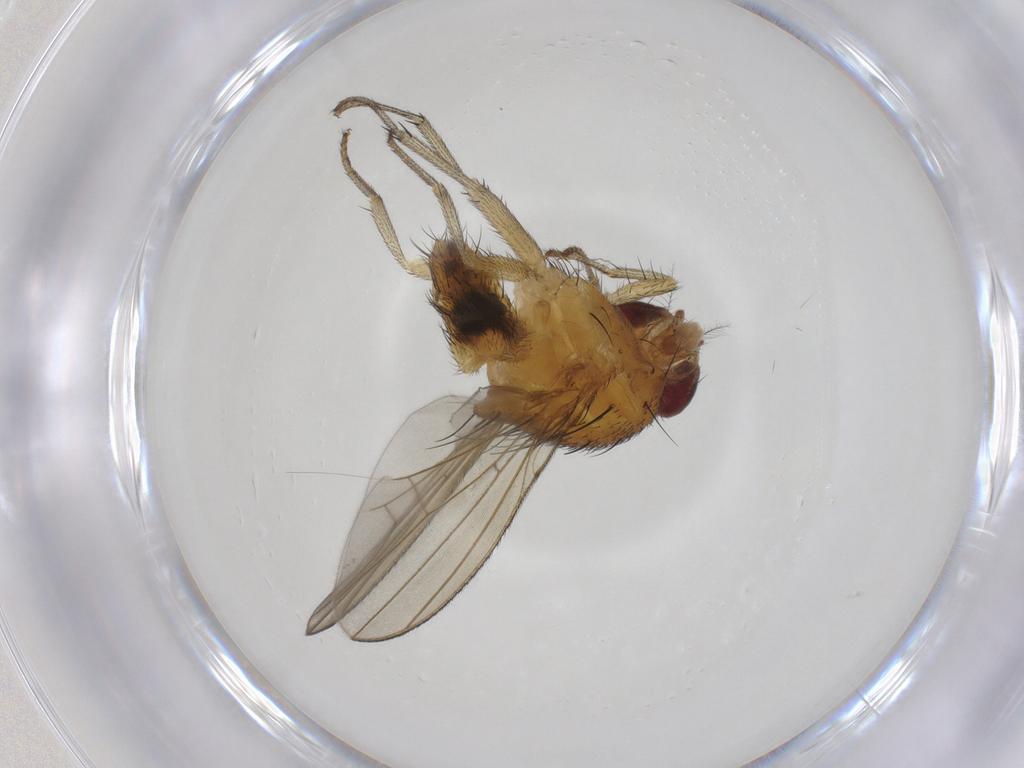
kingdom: Animalia
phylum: Arthropoda
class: Insecta
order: Diptera
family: Lauxaniidae
